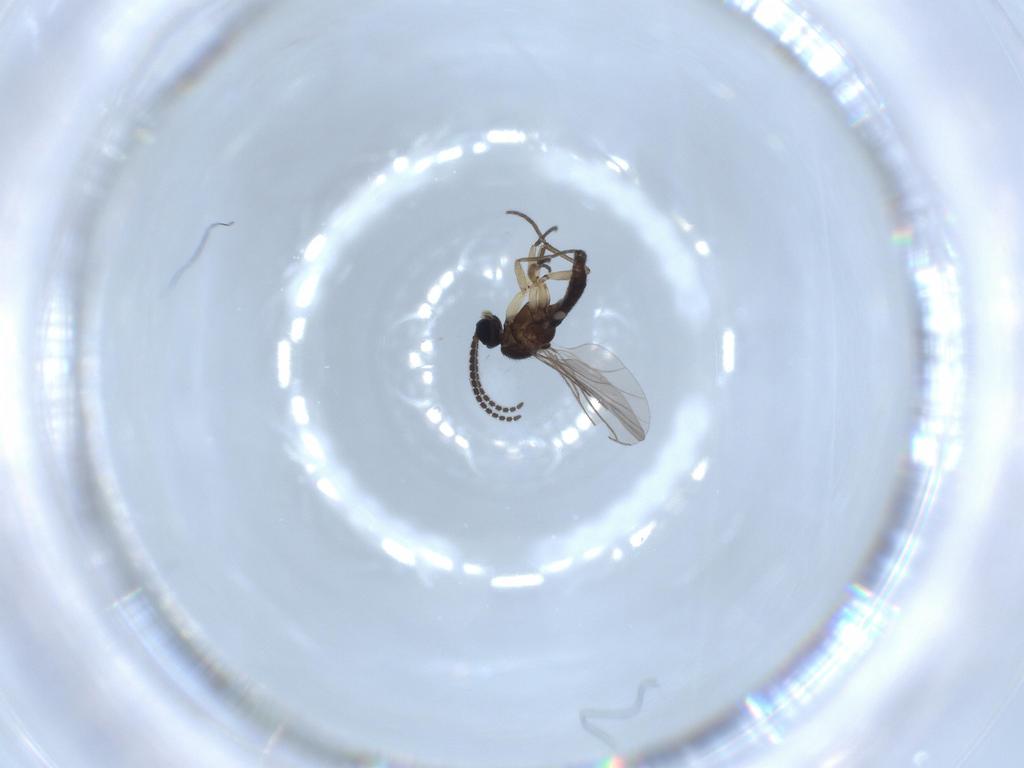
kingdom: Animalia
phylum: Arthropoda
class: Insecta
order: Diptera
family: Sciaridae
